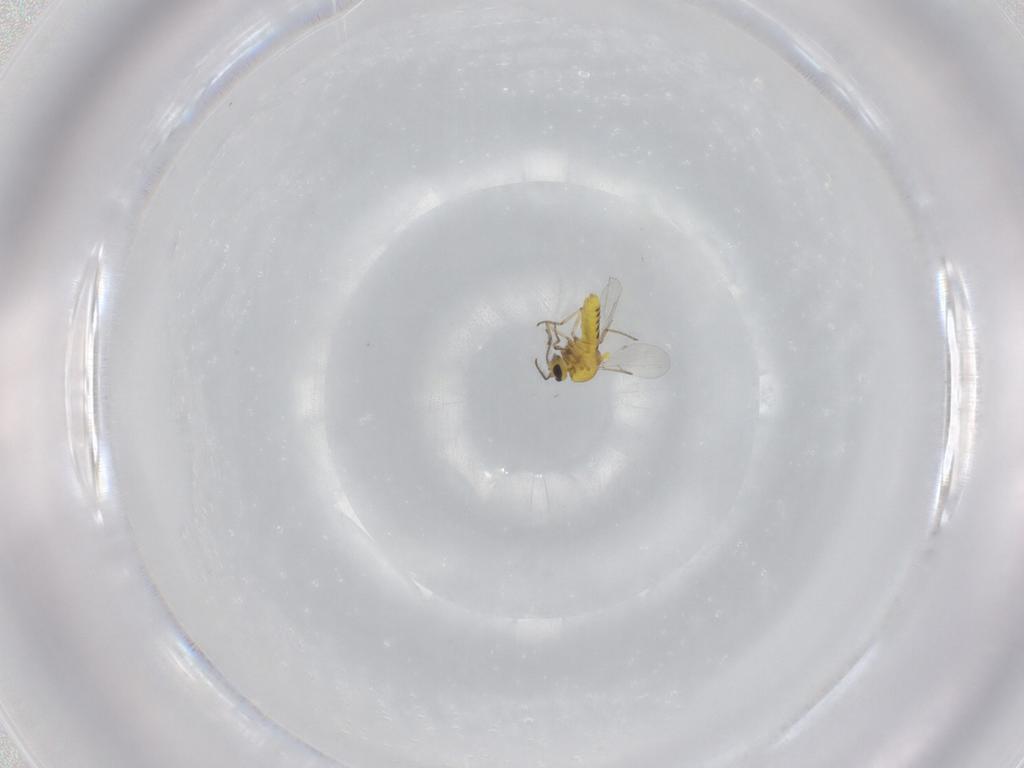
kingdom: Animalia
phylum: Arthropoda
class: Insecta
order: Diptera
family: Ceratopogonidae
